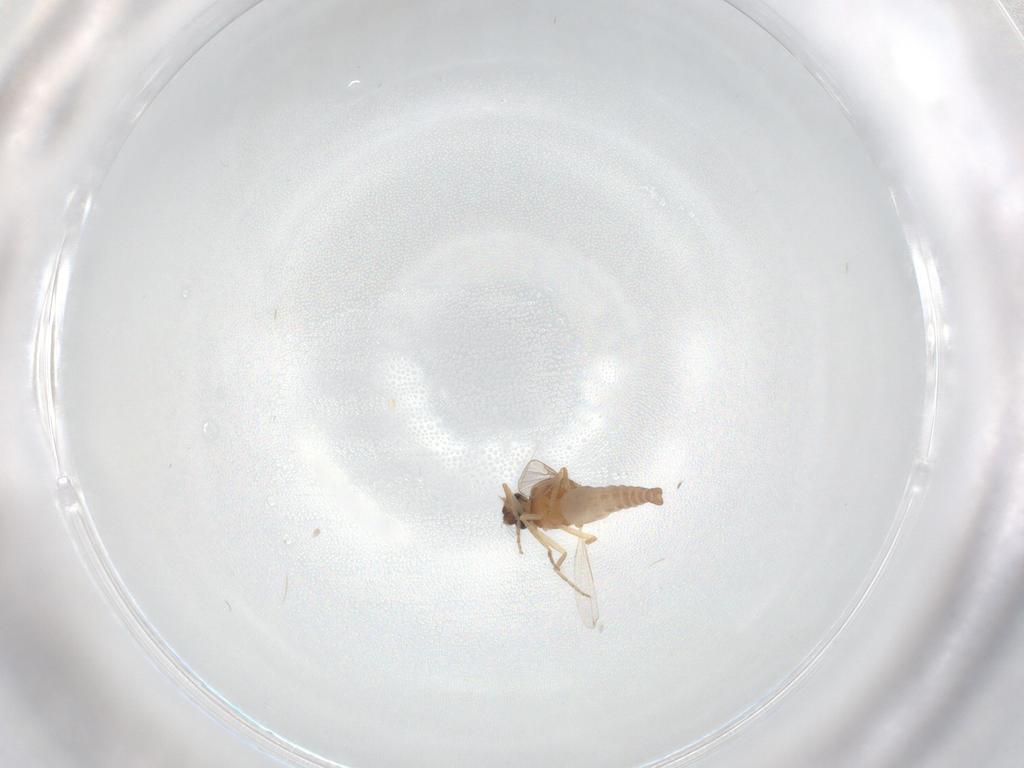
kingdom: Animalia
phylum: Arthropoda
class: Insecta
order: Diptera
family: Ceratopogonidae
